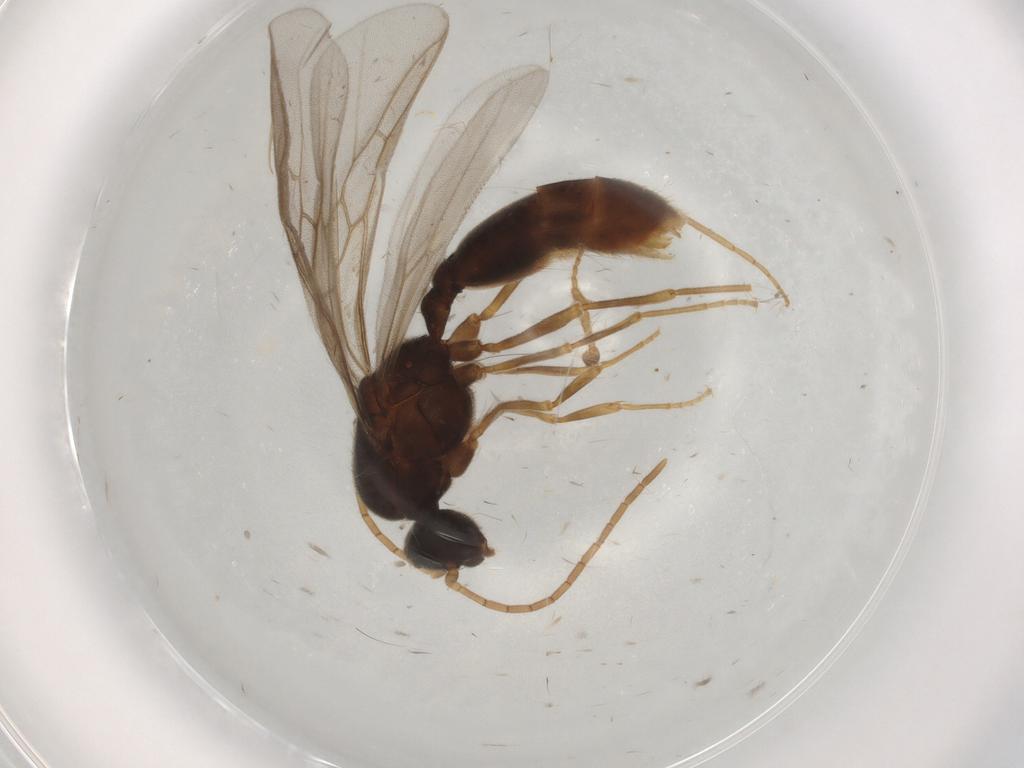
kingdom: Animalia
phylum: Arthropoda
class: Insecta
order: Hymenoptera
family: Formicidae
